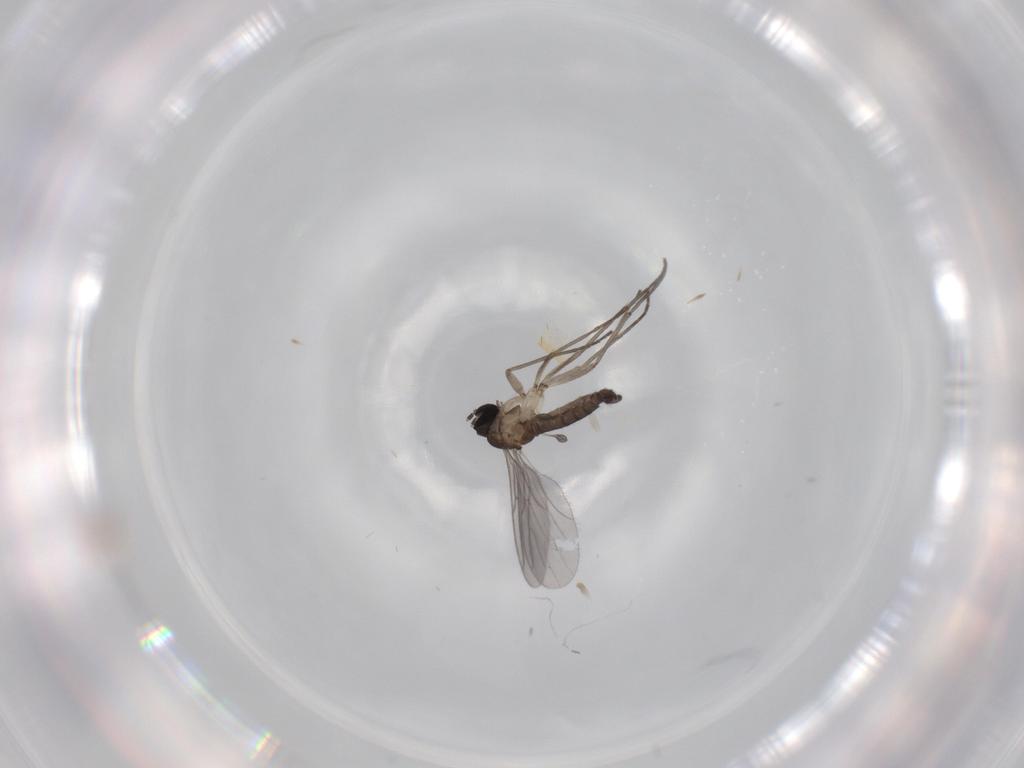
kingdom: Animalia
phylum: Arthropoda
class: Insecta
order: Diptera
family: Sciaridae
